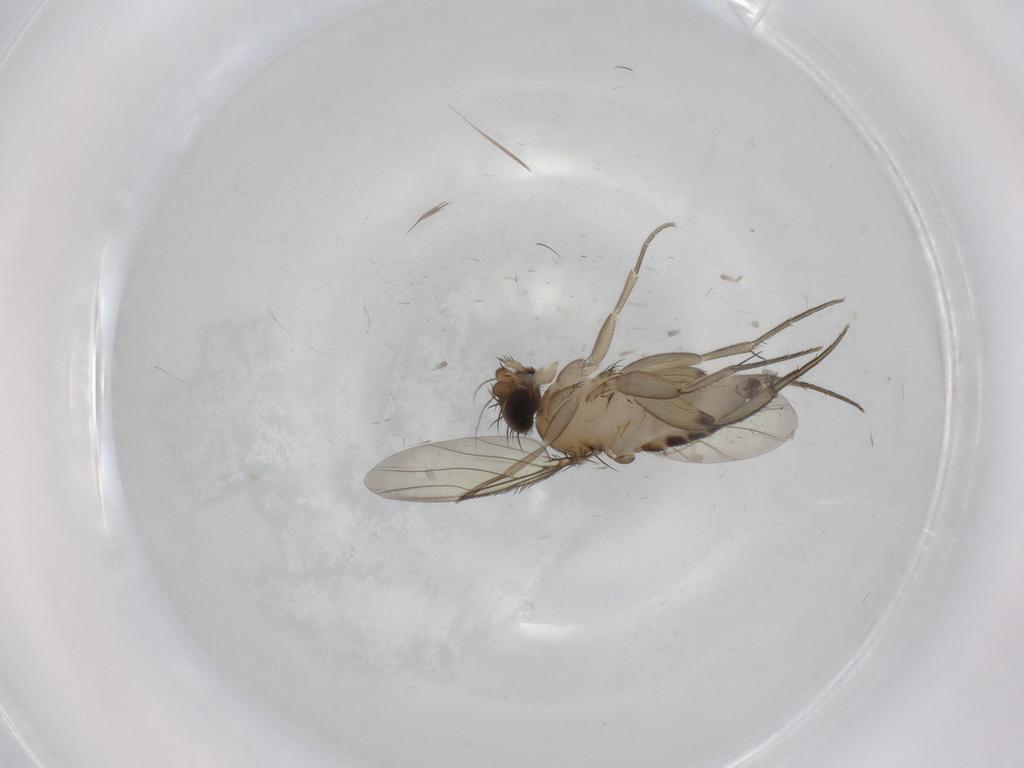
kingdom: Animalia
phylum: Arthropoda
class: Insecta
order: Diptera
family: Phoridae
